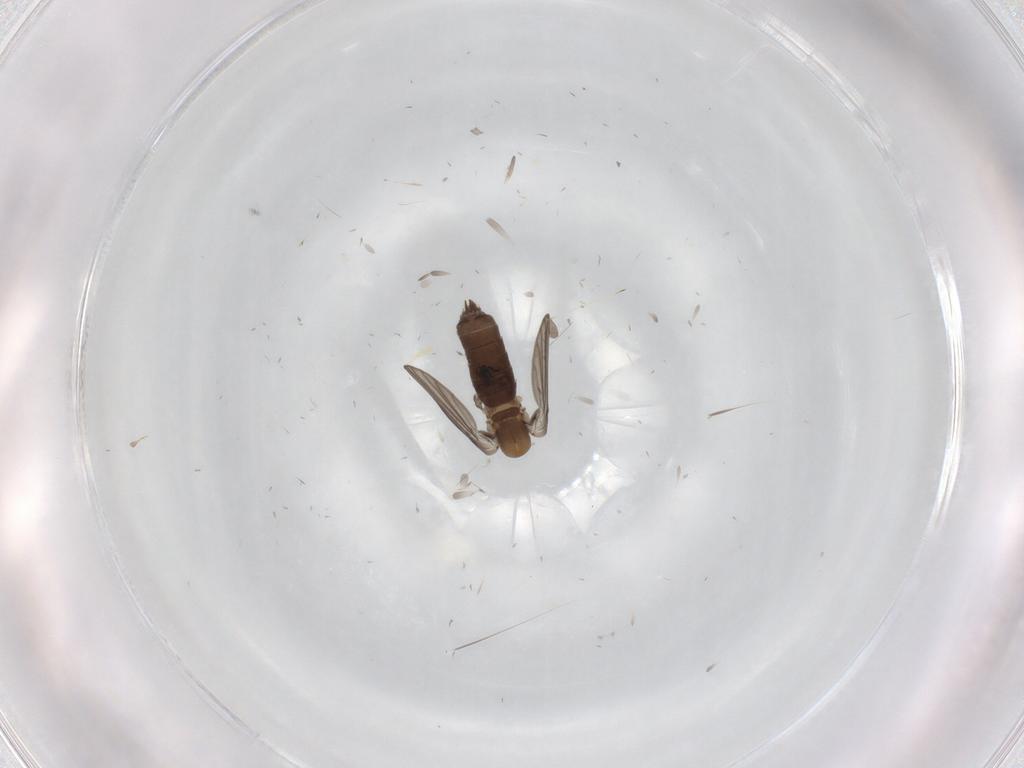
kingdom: Animalia
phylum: Arthropoda
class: Insecta
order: Diptera
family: Psychodidae
